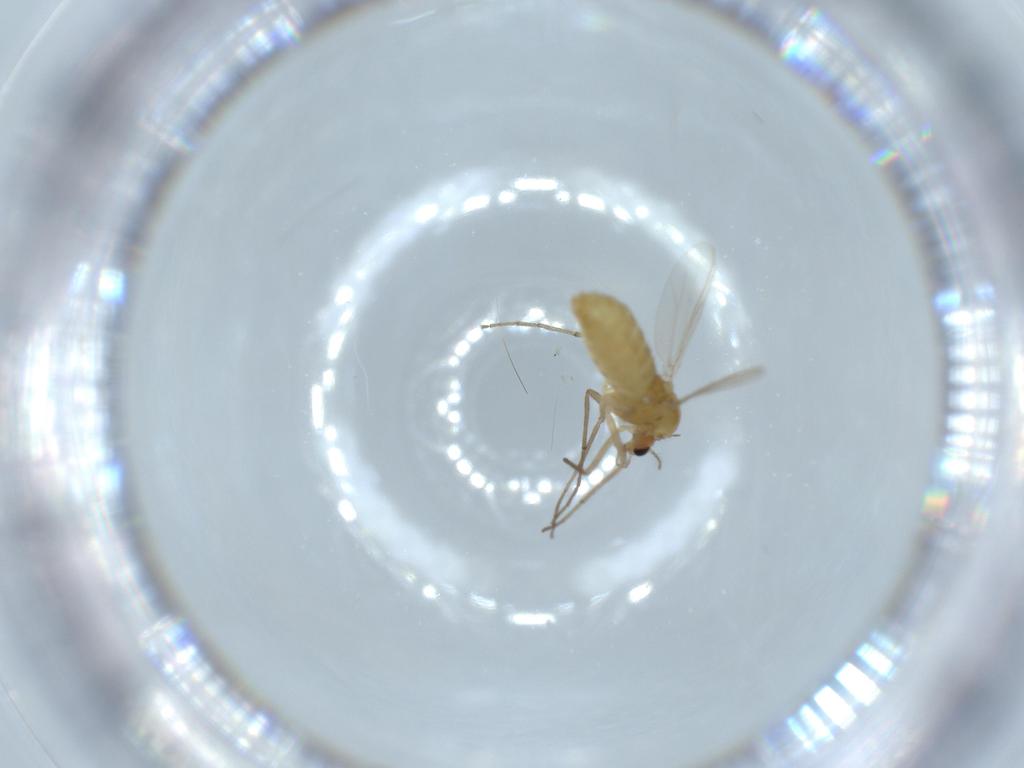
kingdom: Animalia
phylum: Arthropoda
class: Insecta
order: Diptera
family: Chironomidae
